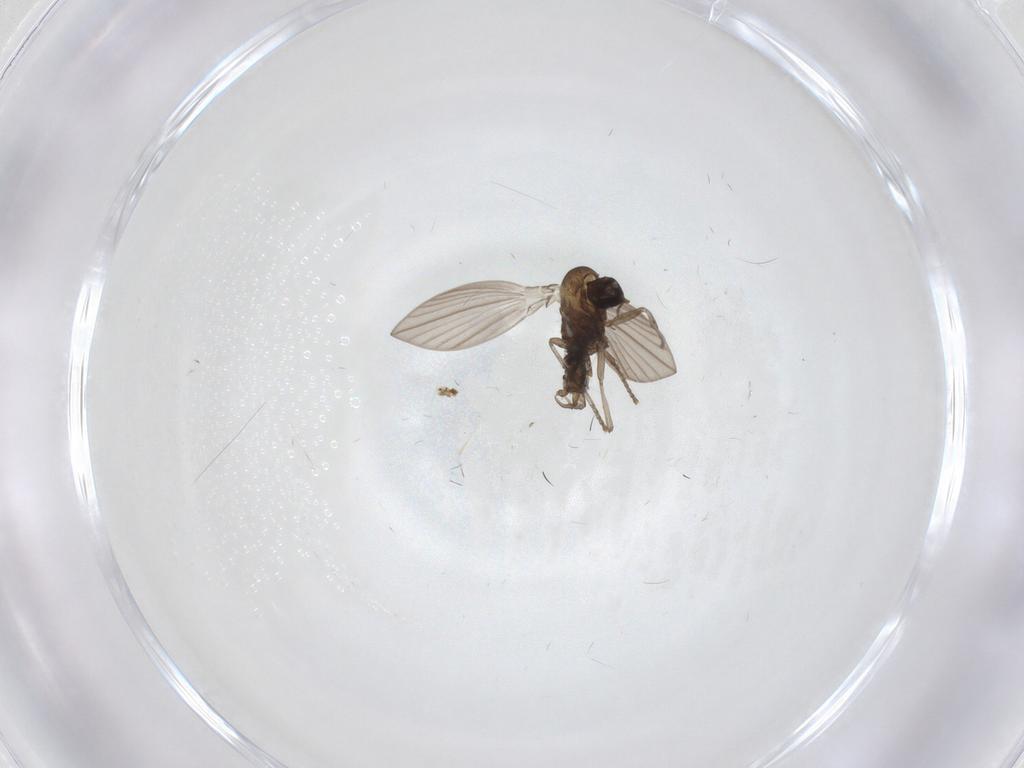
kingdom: Animalia
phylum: Arthropoda
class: Insecta
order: Diptera
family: Psychodidae
